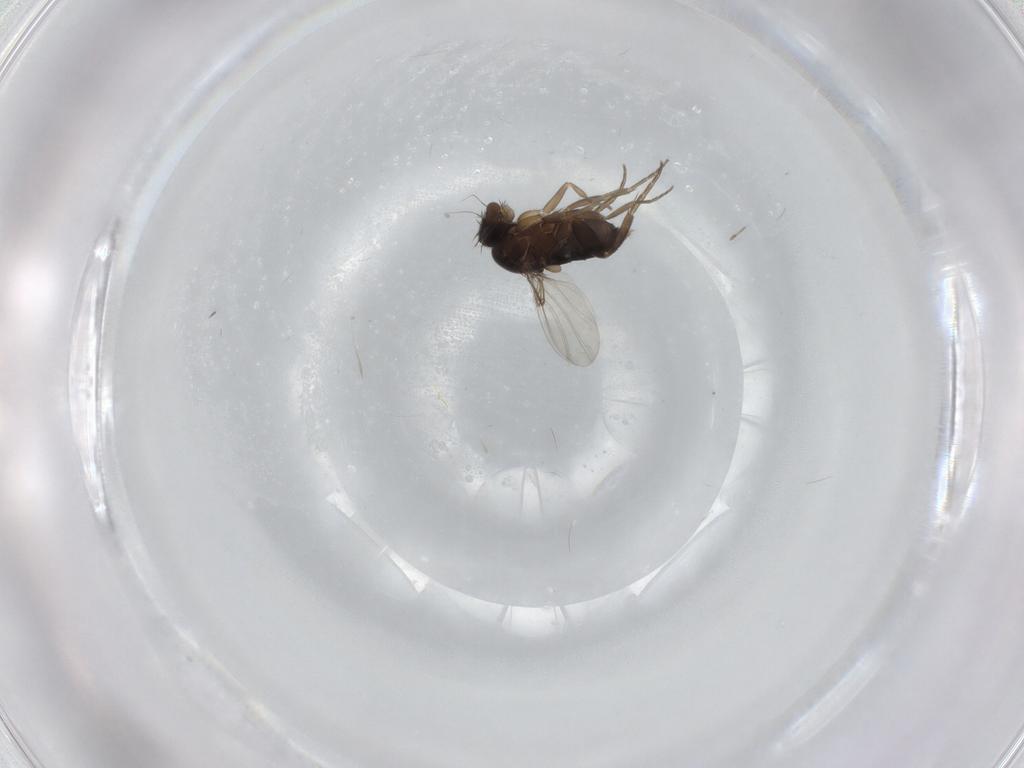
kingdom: Animalia
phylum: Arthropoda
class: Insecta
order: Diptera
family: Phoridae
